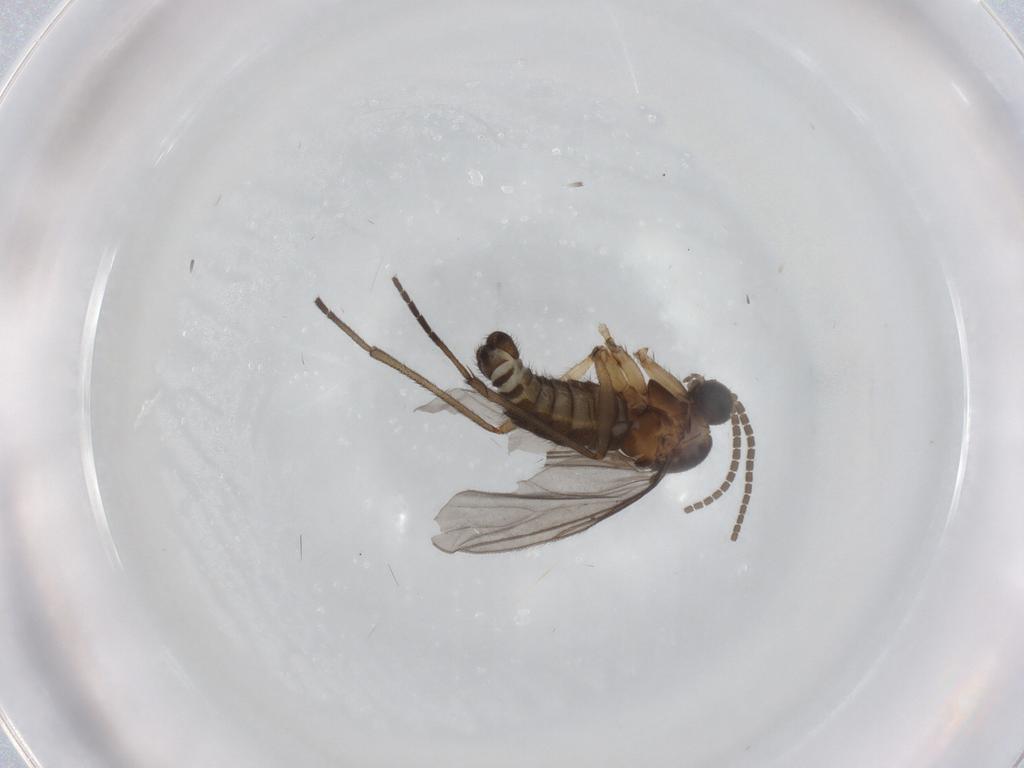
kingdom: Animalia
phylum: Arthropoda
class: Insecta
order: Diptera
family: Sciaridae
